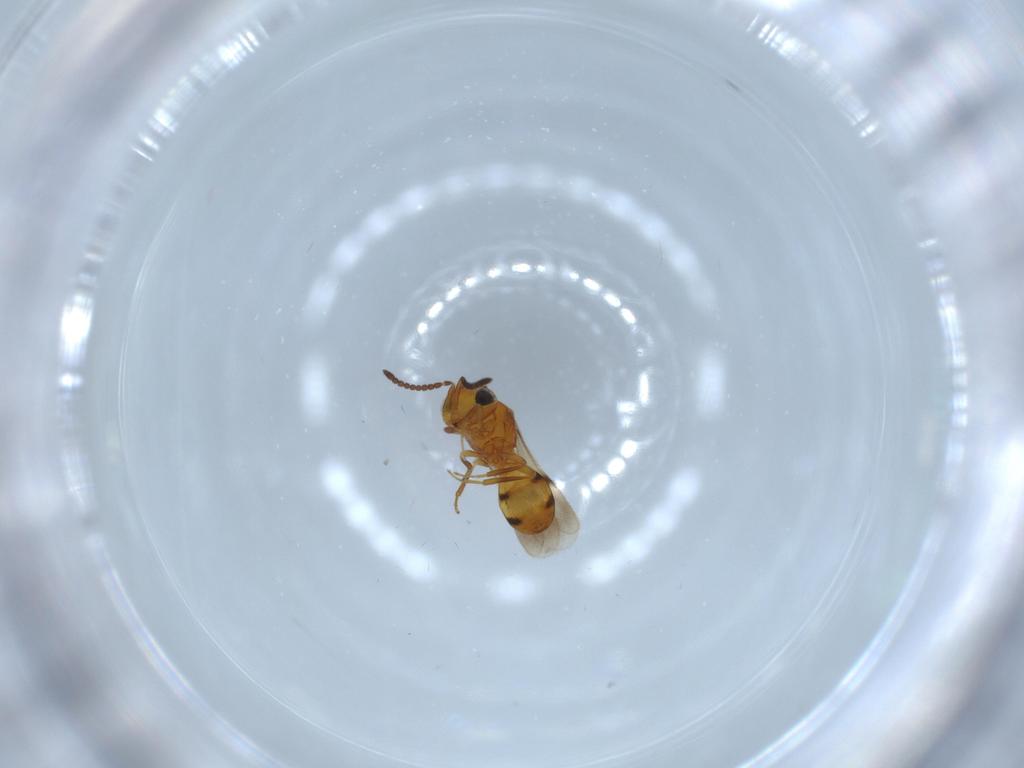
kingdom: Animalia
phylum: Arthropoda
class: Insecta
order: Hymenoptera
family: Scelionidae
